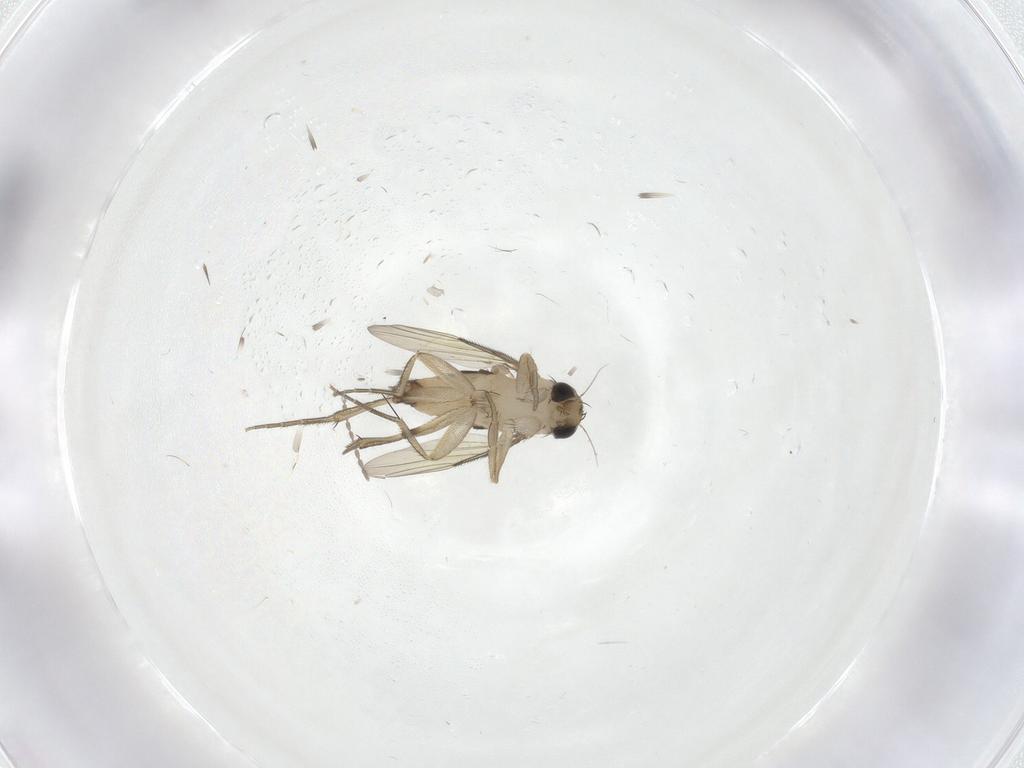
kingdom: Animalia
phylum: Arthropoda
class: Insecta
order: Diptera
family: Phoridae
